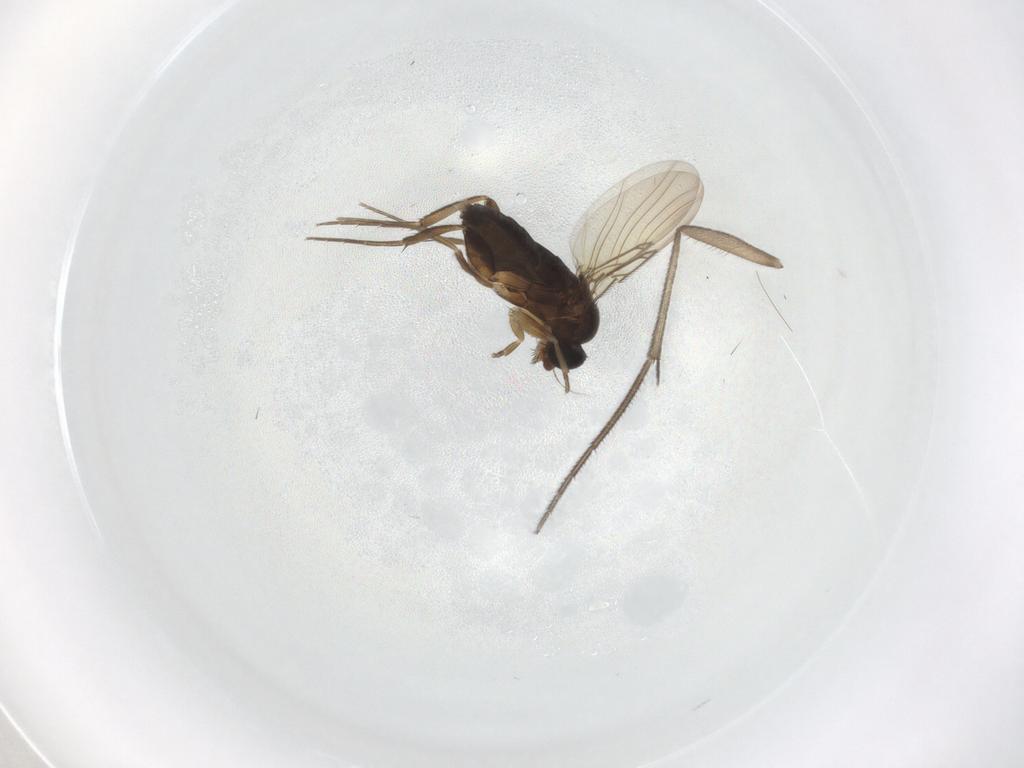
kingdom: Animalia
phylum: Arthropoda
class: Insecta
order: Diptera
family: Phoridae
